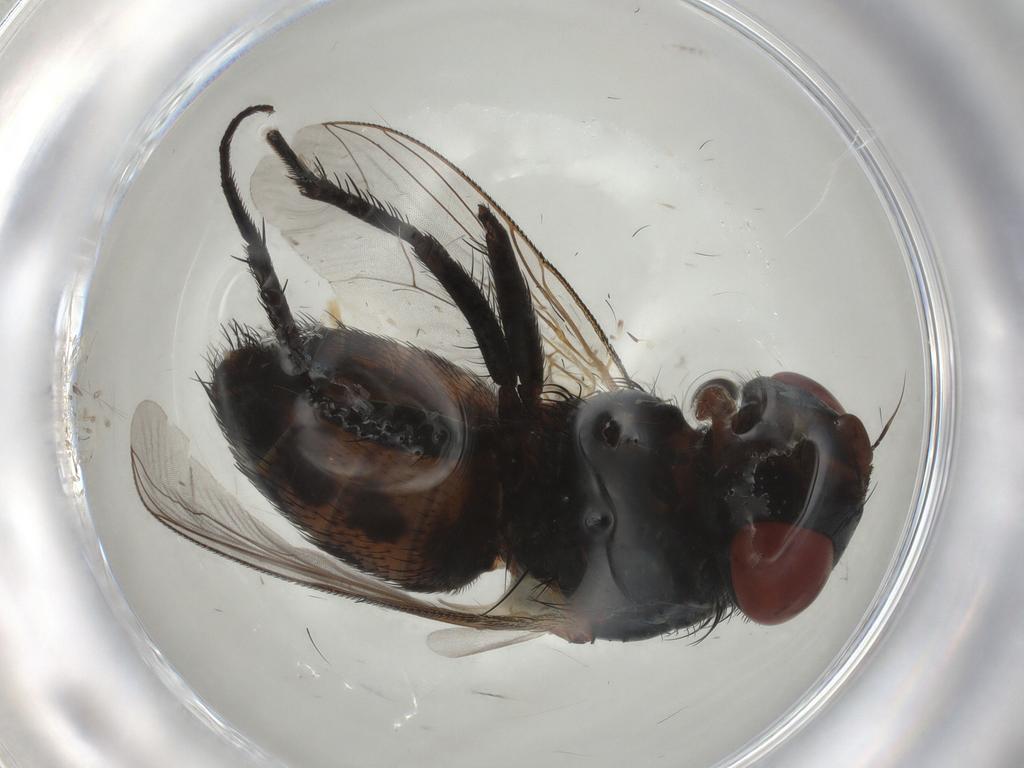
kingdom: Animalia
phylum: Arthropoda
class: Insecta
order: Diptera
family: Sarcophagidae
